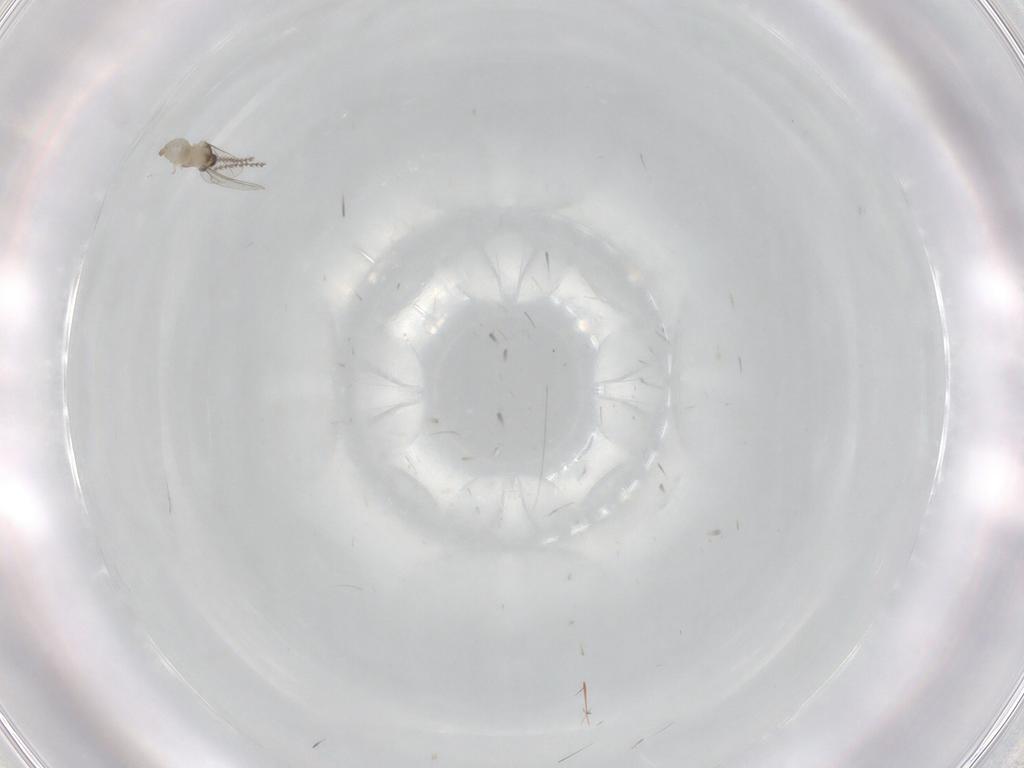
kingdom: Animalia
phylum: Arthropoda
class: Insecta
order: Diptera
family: Cecidomyiidae
